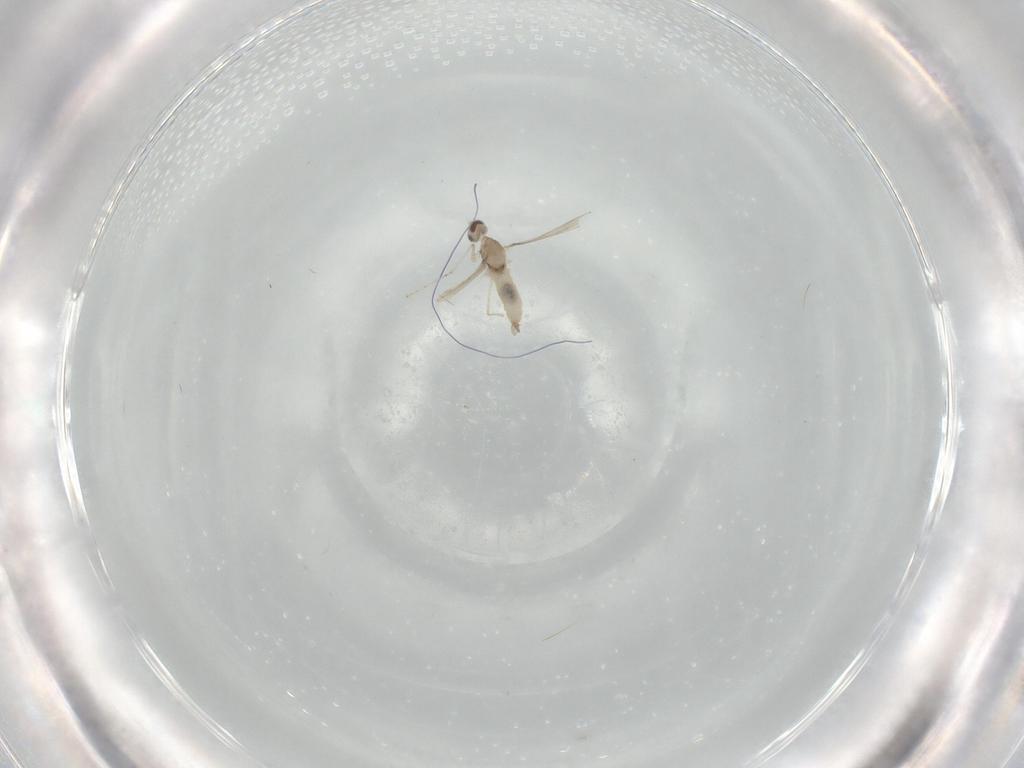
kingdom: Animalia
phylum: Arthropoda
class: Insecta
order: Diptera
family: Cecidomyiidae
